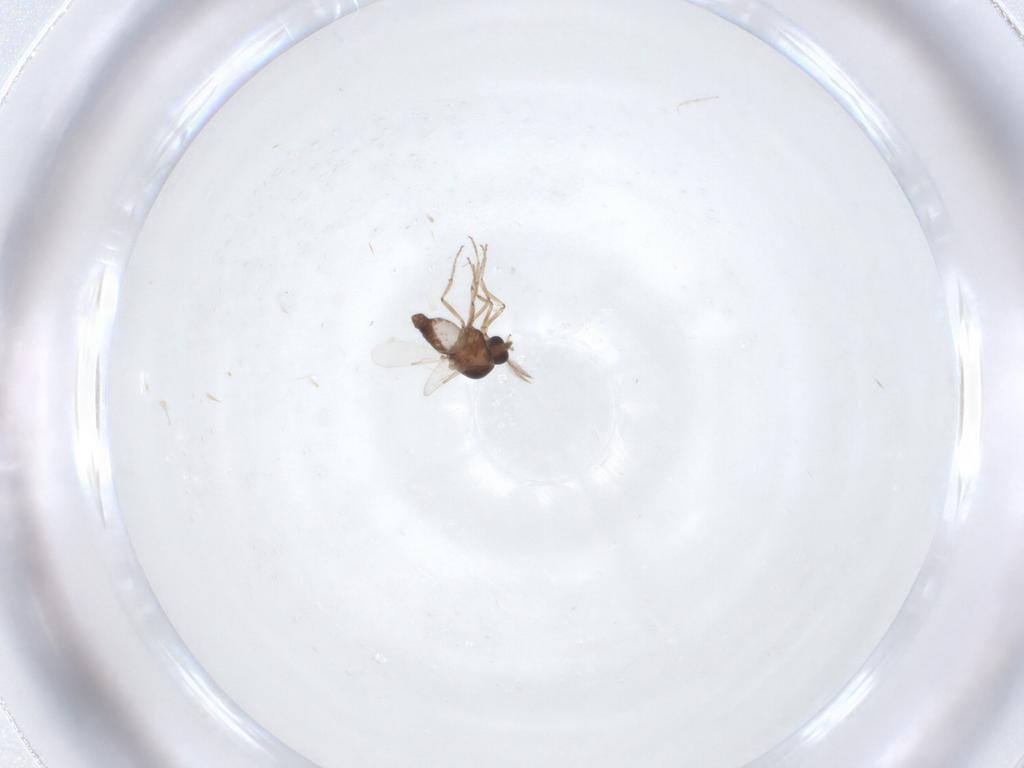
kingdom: Animalia
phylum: Arthropoda
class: Insecta
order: Diptera
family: Ceratopogonidae
